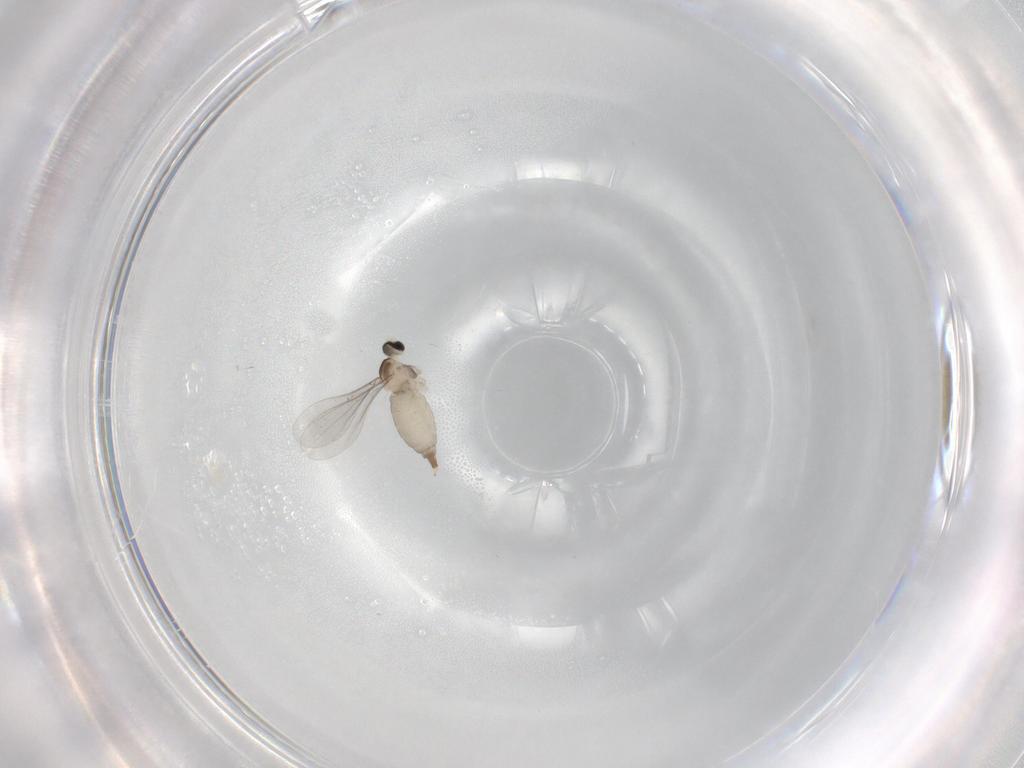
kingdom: Animalia
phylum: Arthropoda
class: Insecta
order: Diptera
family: Cecidomyiidae
